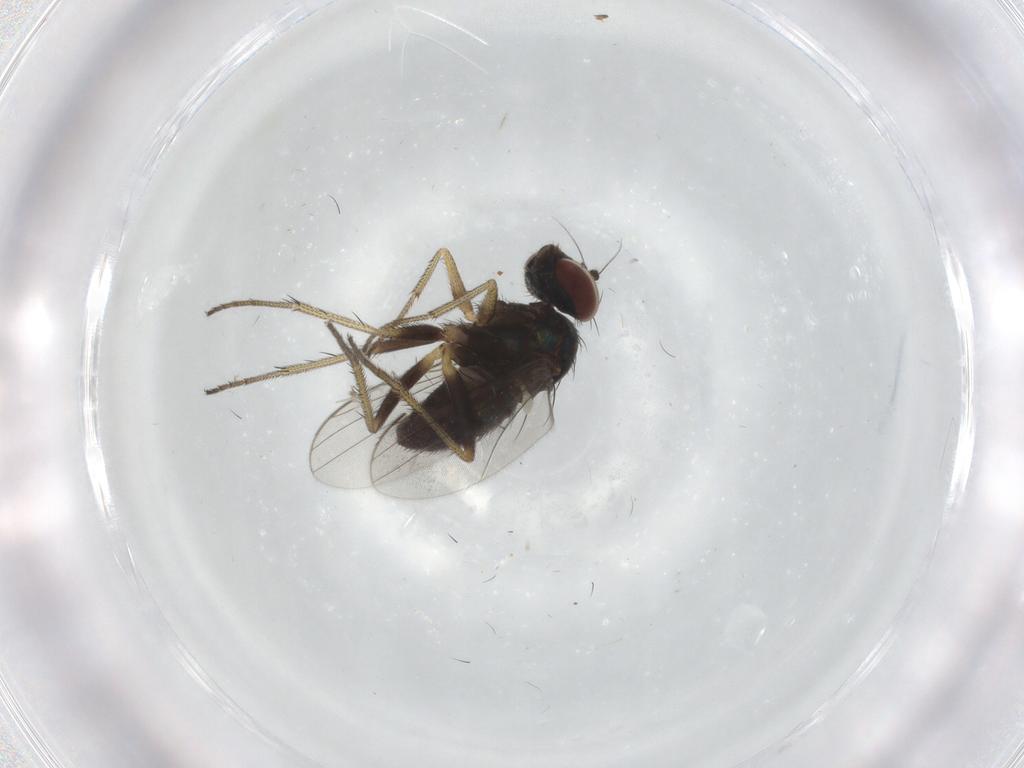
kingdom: Animalia
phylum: Arthropoda
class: Insecta
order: Diptera
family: Dolichopodidae
